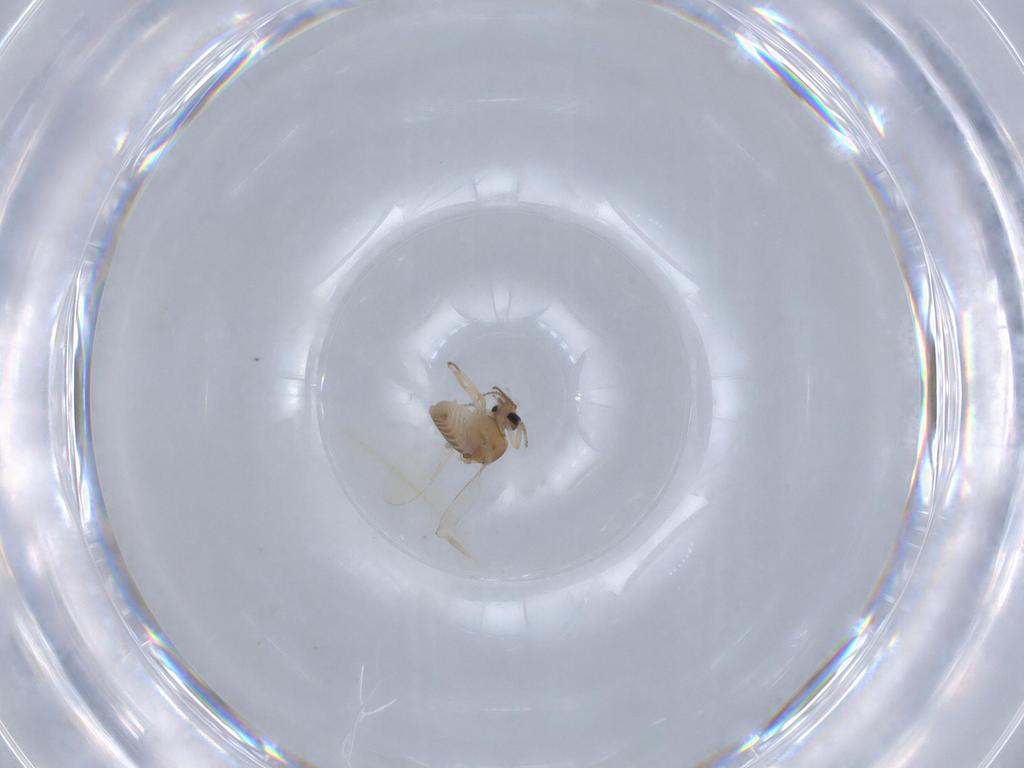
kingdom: Animalia
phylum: Arthropoda
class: Insecta
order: Diptera
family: Ceratopogonidae
